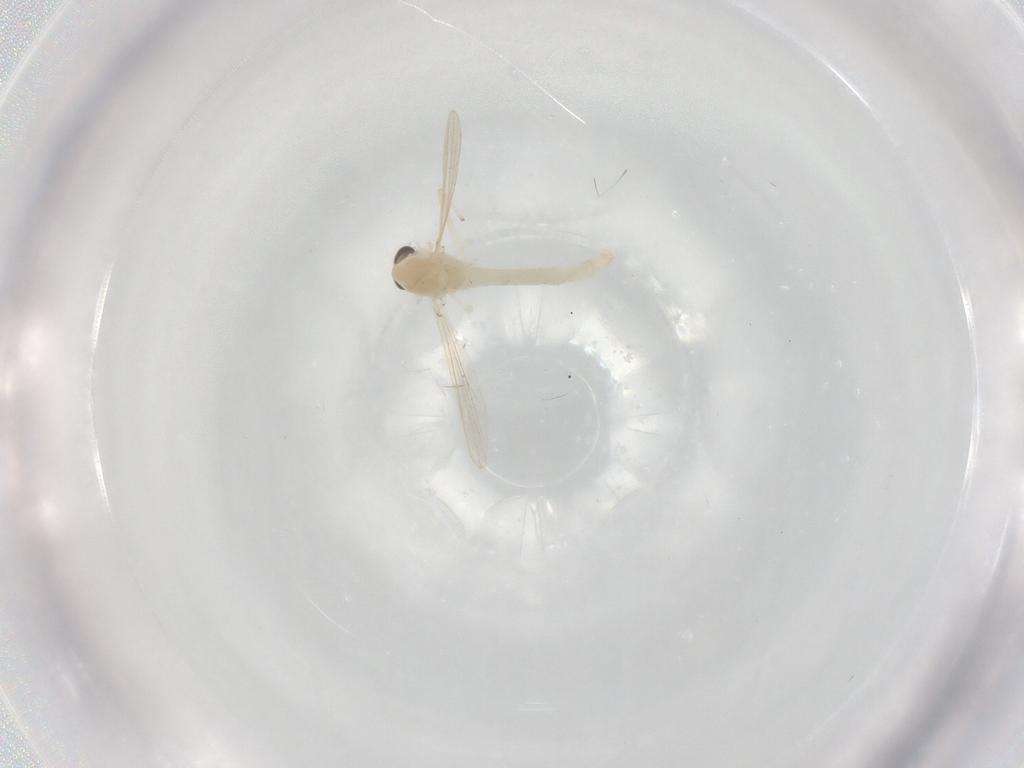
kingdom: Animalia
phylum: Arthropoda
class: Insecta
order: Diptera
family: Chironomidae
